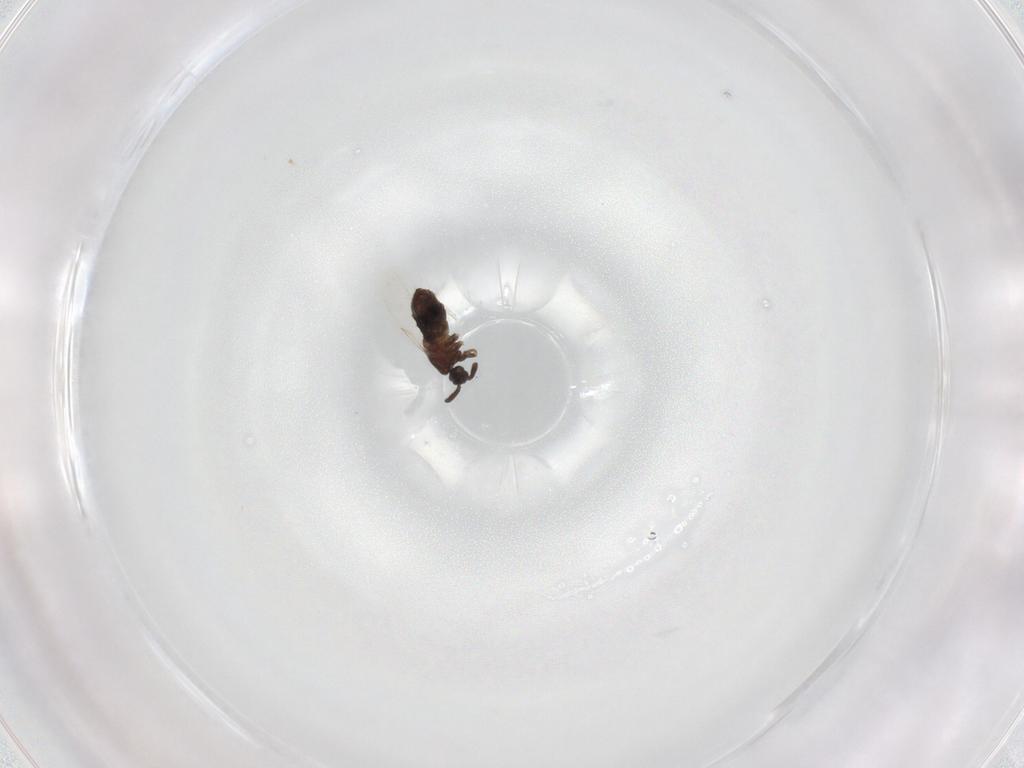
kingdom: Animalia
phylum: Arthropoda
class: Insecta
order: Diptera
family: Scatopsidae
